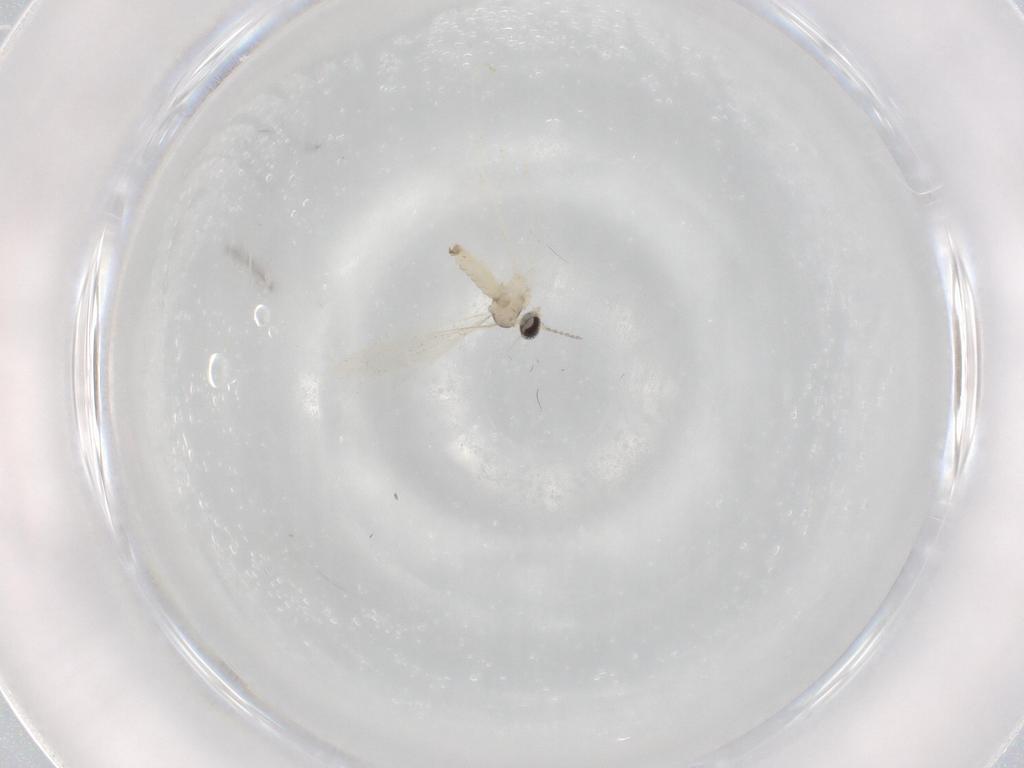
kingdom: Animalia
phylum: Arthropoda
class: Insecta
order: Diptera
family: Cecidomyiidae
